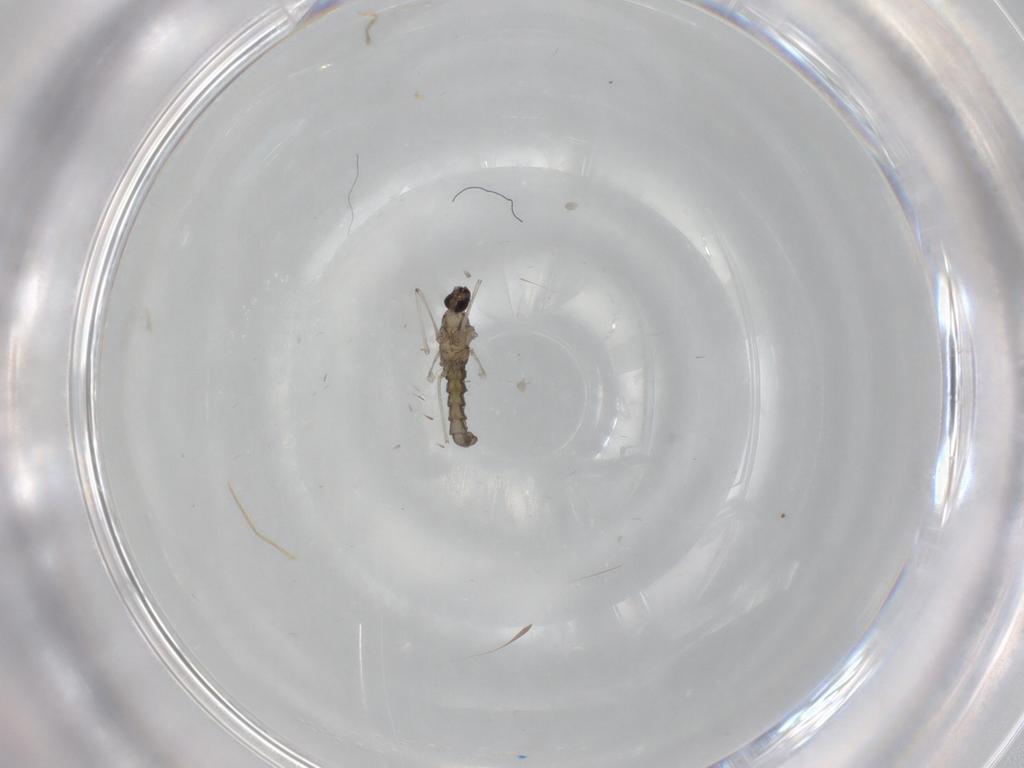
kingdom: Animalia
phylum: Arthropoda
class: Insecta
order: Diptera
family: Cecidomyiidae
